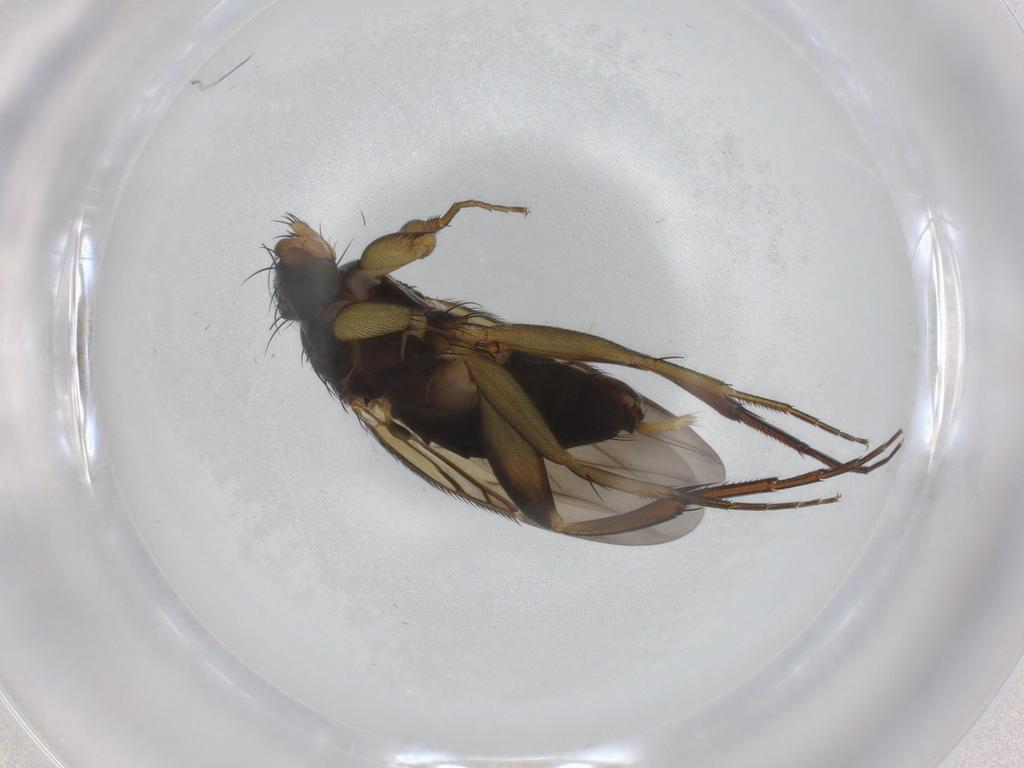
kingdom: Animalia
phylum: Arthropoda
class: Insecta
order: Diptera
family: Phoridae
